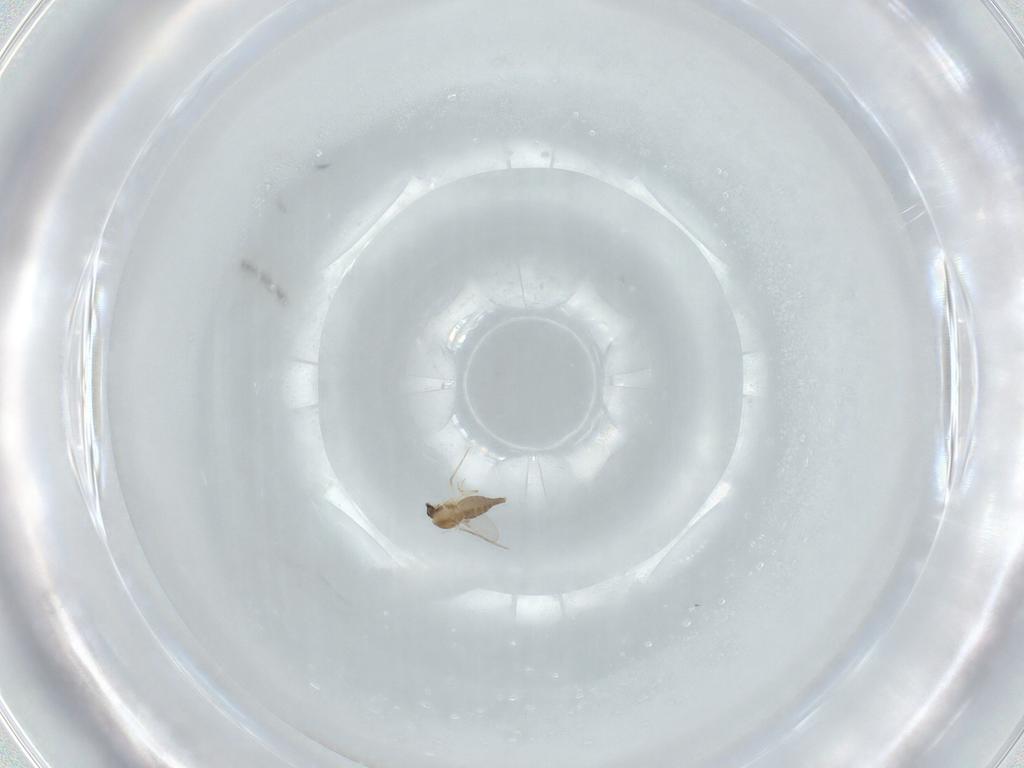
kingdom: Animalia
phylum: Arthropoda
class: Insecta
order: Diptera
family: Ceratopogonidae
